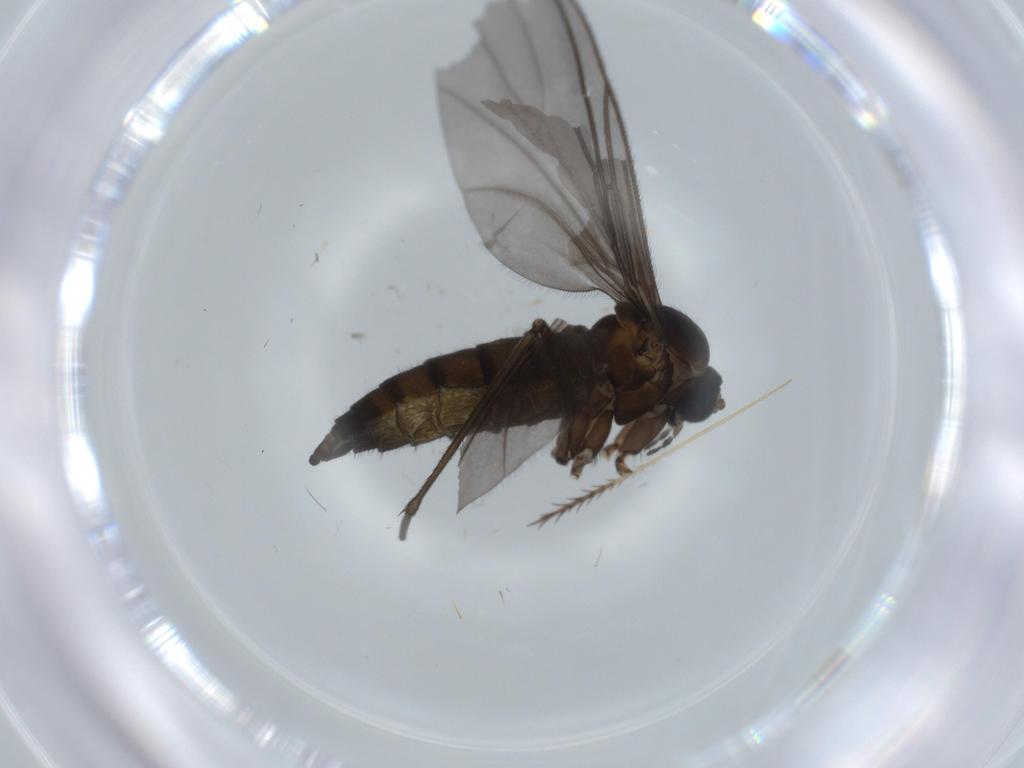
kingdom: Animalia
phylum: Arthropoda
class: Insecta
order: Diptera
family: Sciaridae
